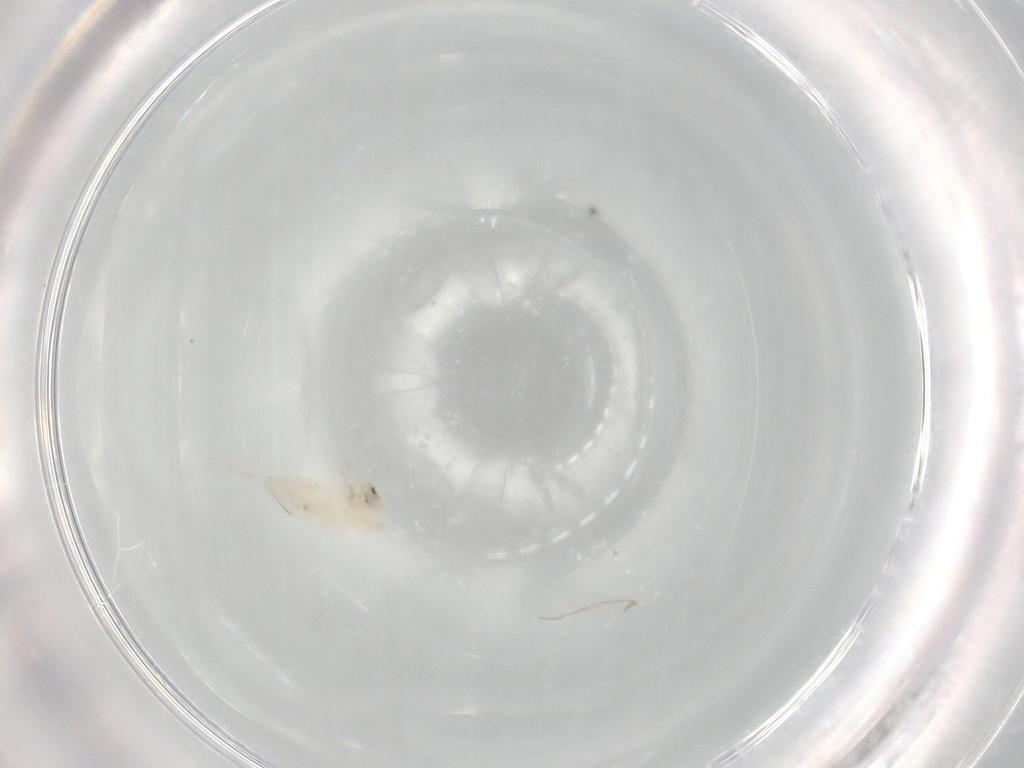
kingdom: Animalia
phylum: Arthropoda
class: Collembola
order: Entomobryomorpha
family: Entomobryidae
